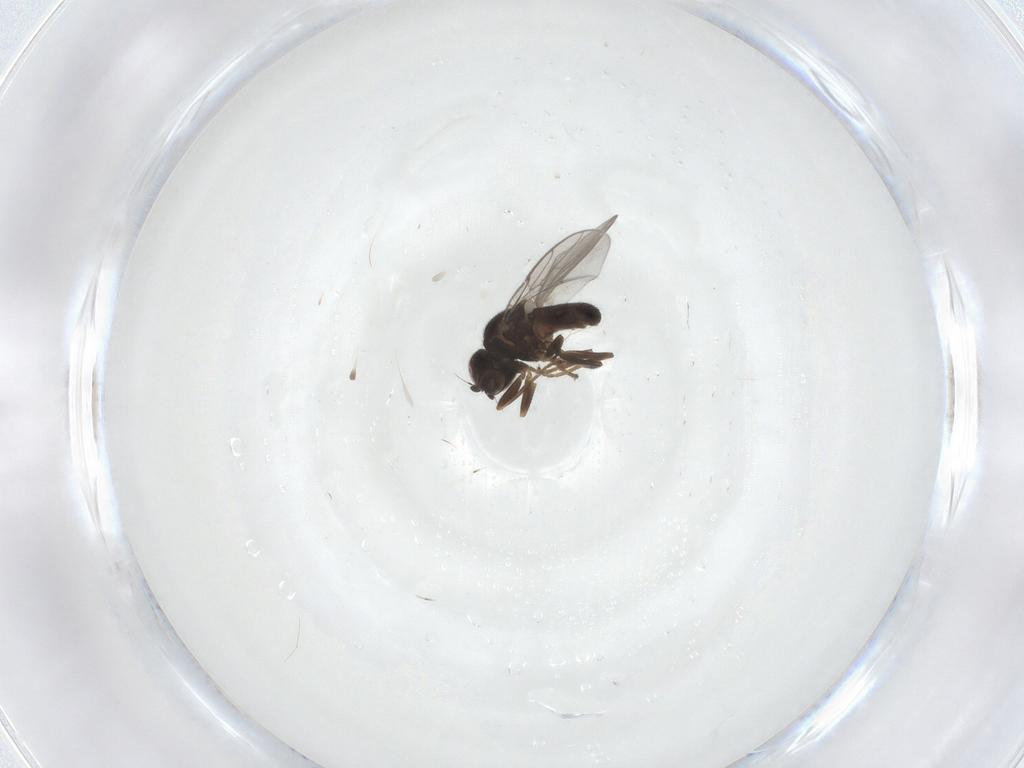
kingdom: Animalia
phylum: Arthropoda
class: Insecta
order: Diptera
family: Chloropidae
